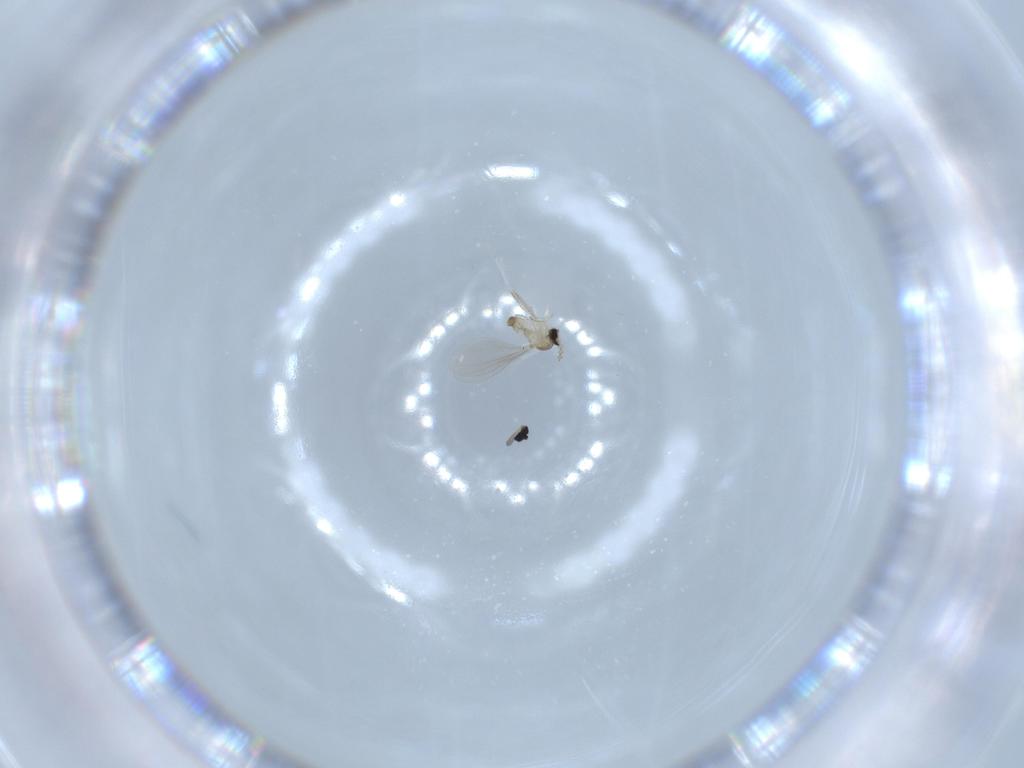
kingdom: Animalia
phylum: Arthropoda
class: Insecta
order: Diptera
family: Cecidomyiidae
